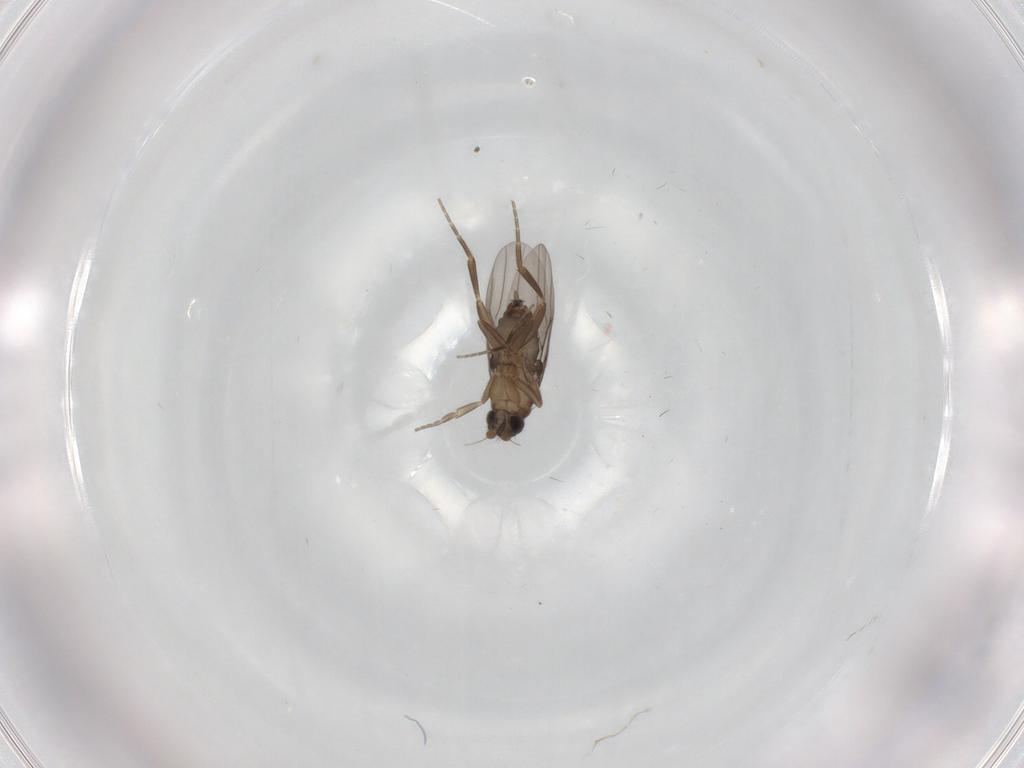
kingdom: Animalia
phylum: Arthropoda
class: Insecta
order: Diptera
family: Phoridae
